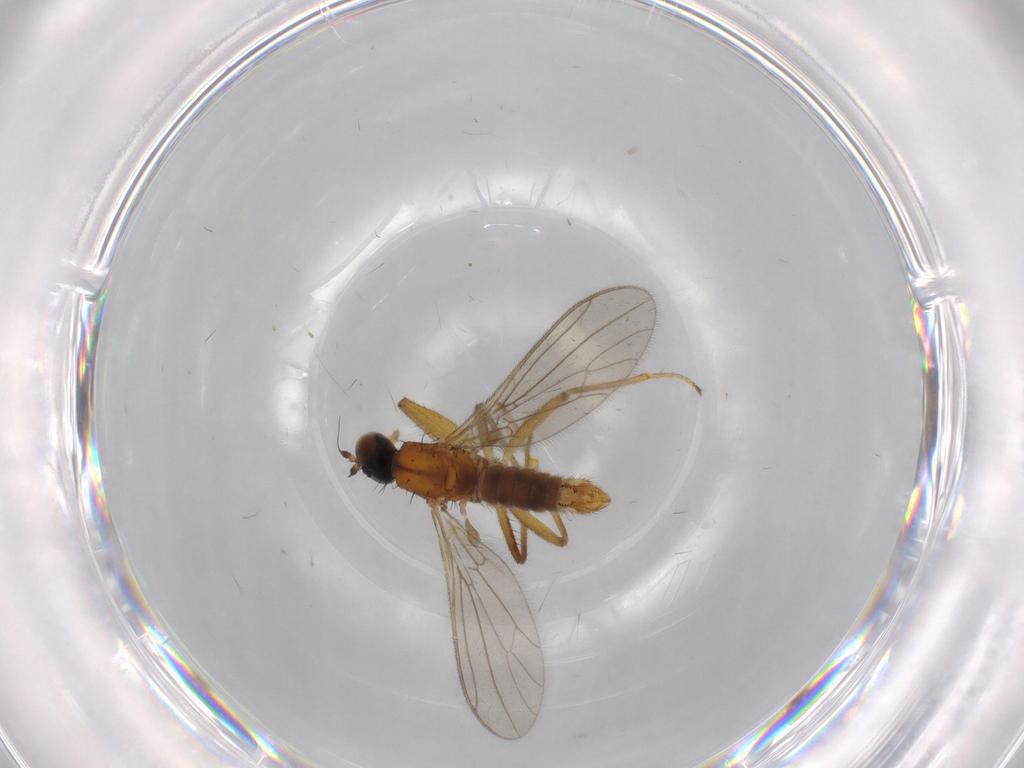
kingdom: Animalia
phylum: Arthropoda
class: Insecta
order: Diptera
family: Empididae
